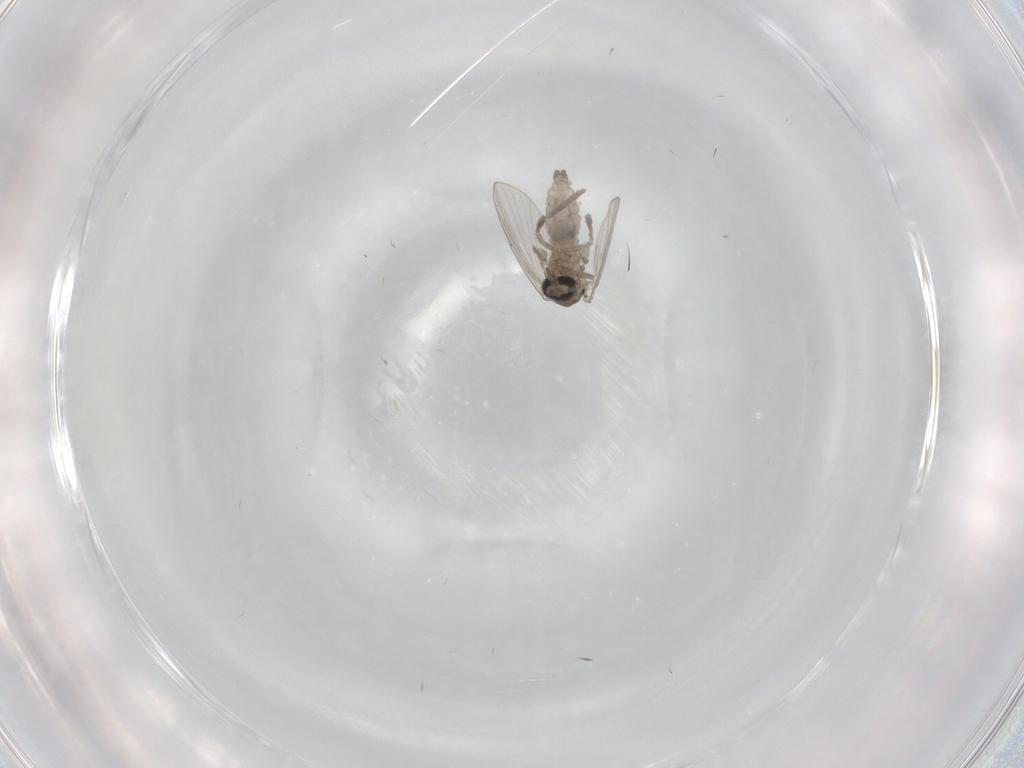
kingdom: Animalia
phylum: Arthropoda
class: Insecta
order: Diptera
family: Syrphidae
